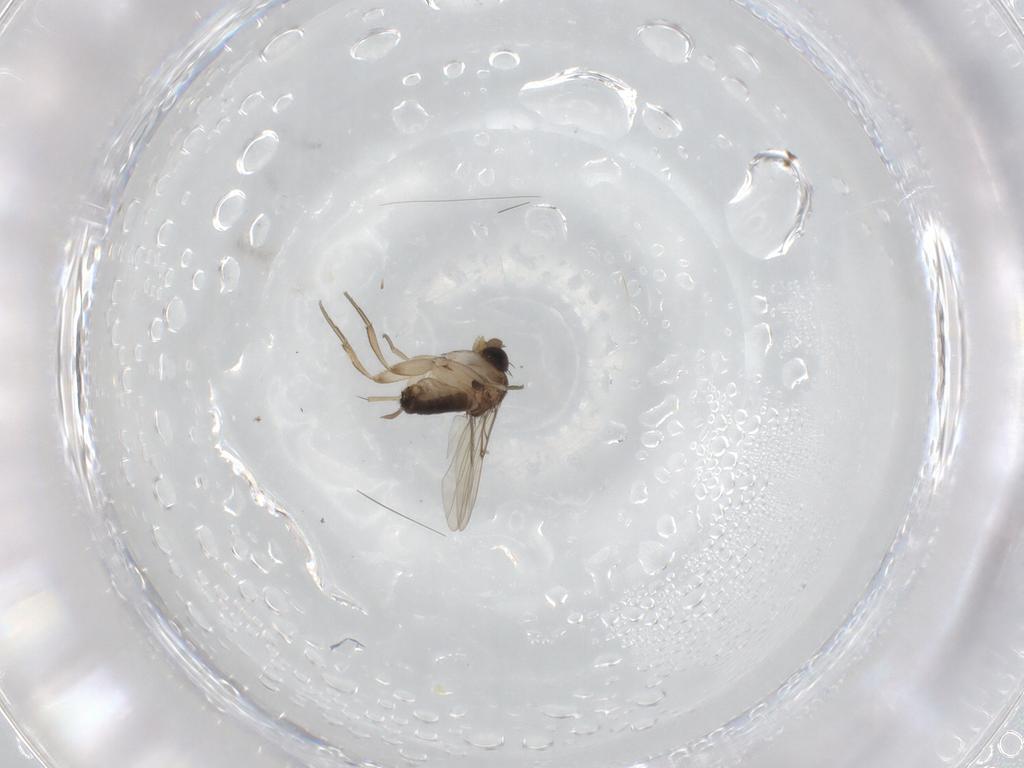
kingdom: Animalia
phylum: Arthropoda
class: Insecta
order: Diptera
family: Phoridae
